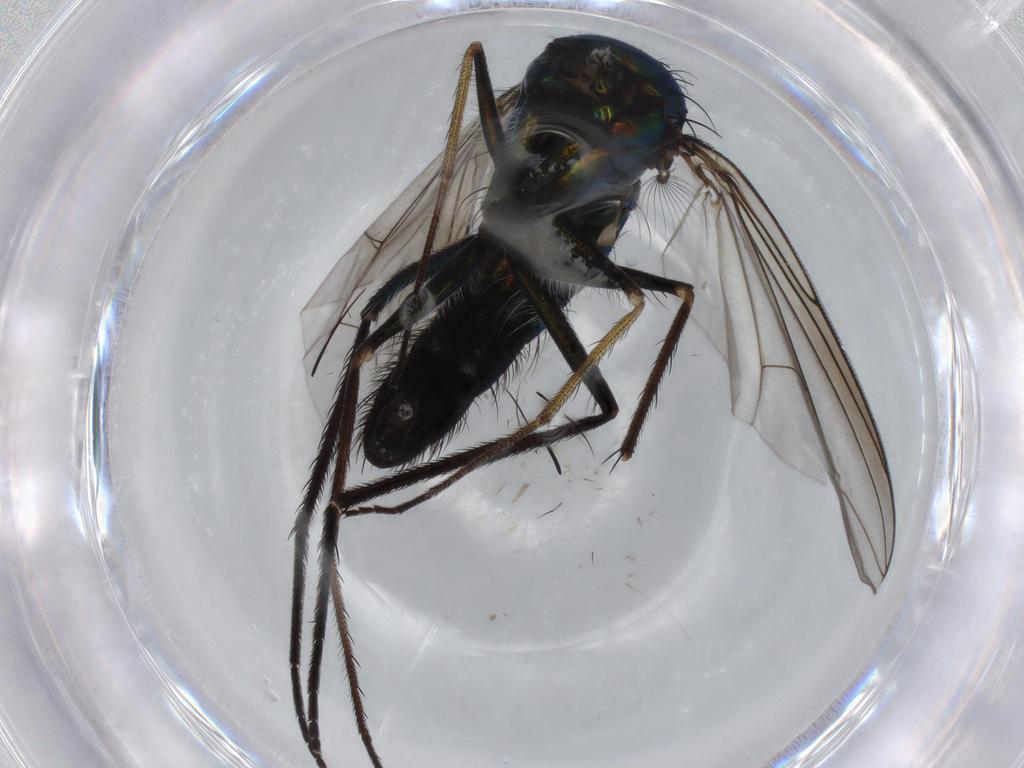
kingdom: Animalia
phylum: Arthropoda
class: Insecta
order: Diptera
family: Dolichopodidae
